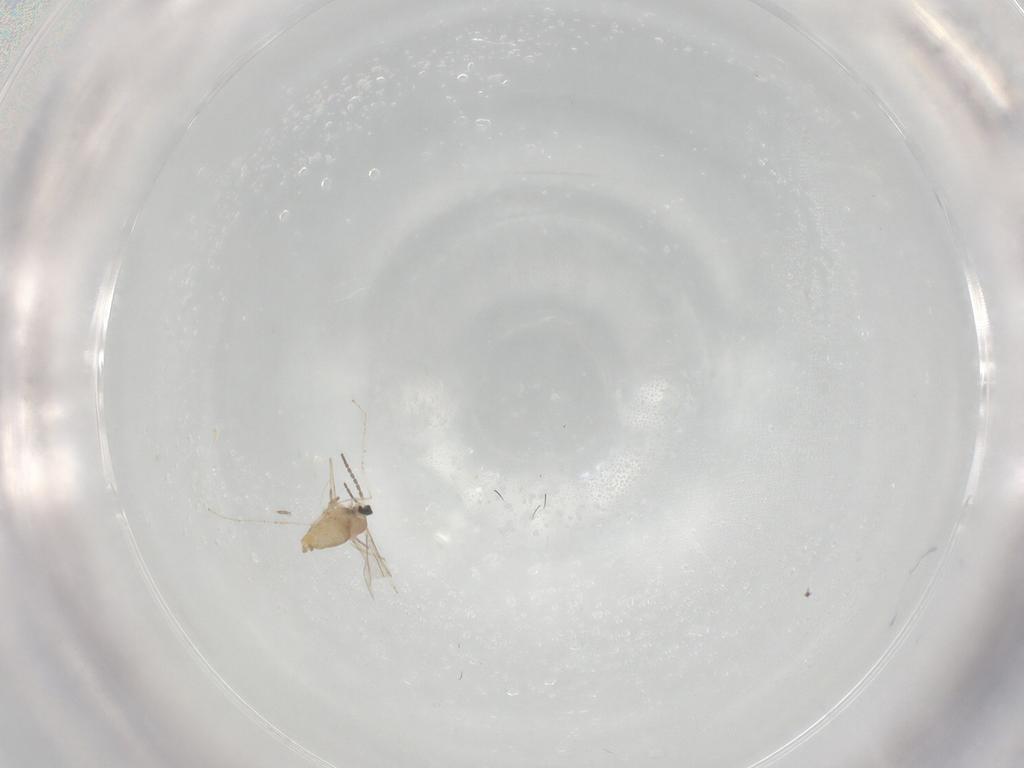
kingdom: Animalia
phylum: Arthropoda
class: Insecta
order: Diptera
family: Cecidomyiidae
